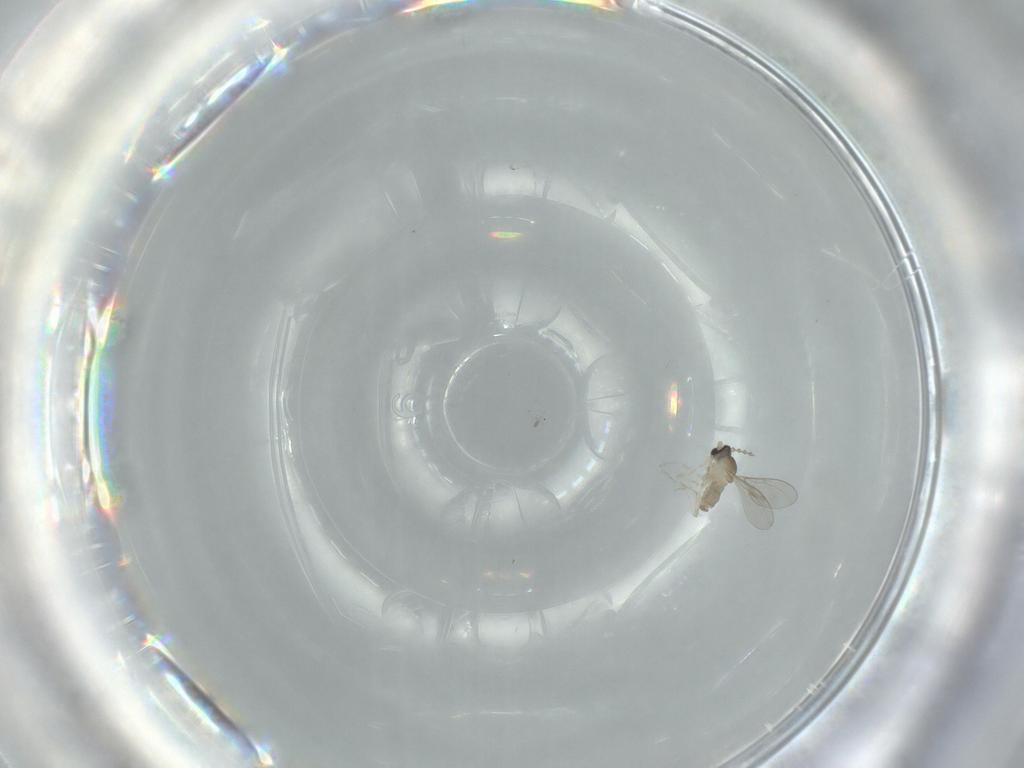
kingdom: Animalia
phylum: Arthropoda
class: Insecta
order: Diptera
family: Cecidomyiidae
